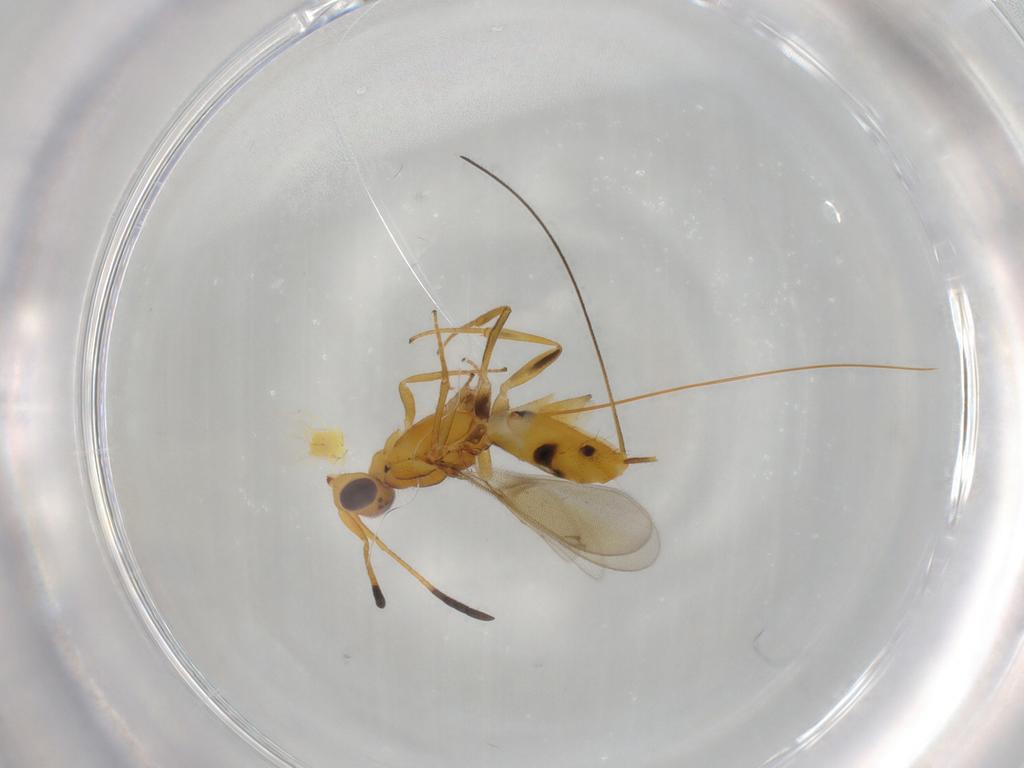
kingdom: Animalia
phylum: Arthropoda
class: Insecta
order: Hymenoptera
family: Eupelmidae
